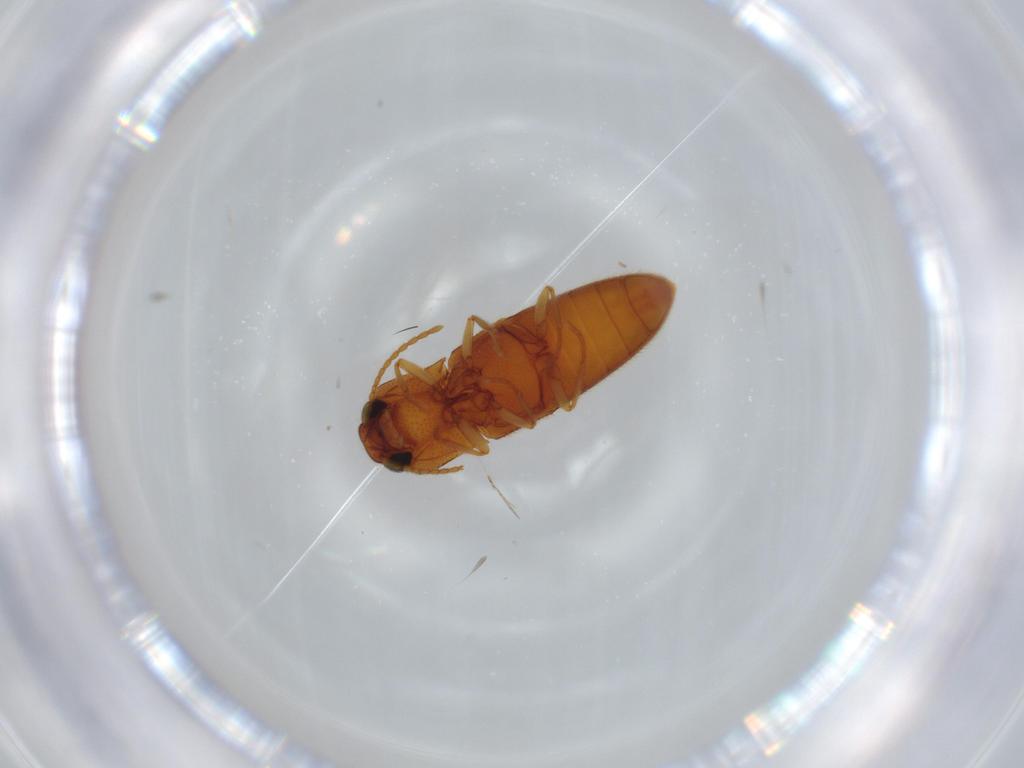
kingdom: Animalia
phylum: Arthropoda
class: Insecta
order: Coleoptera
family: Elateridae
